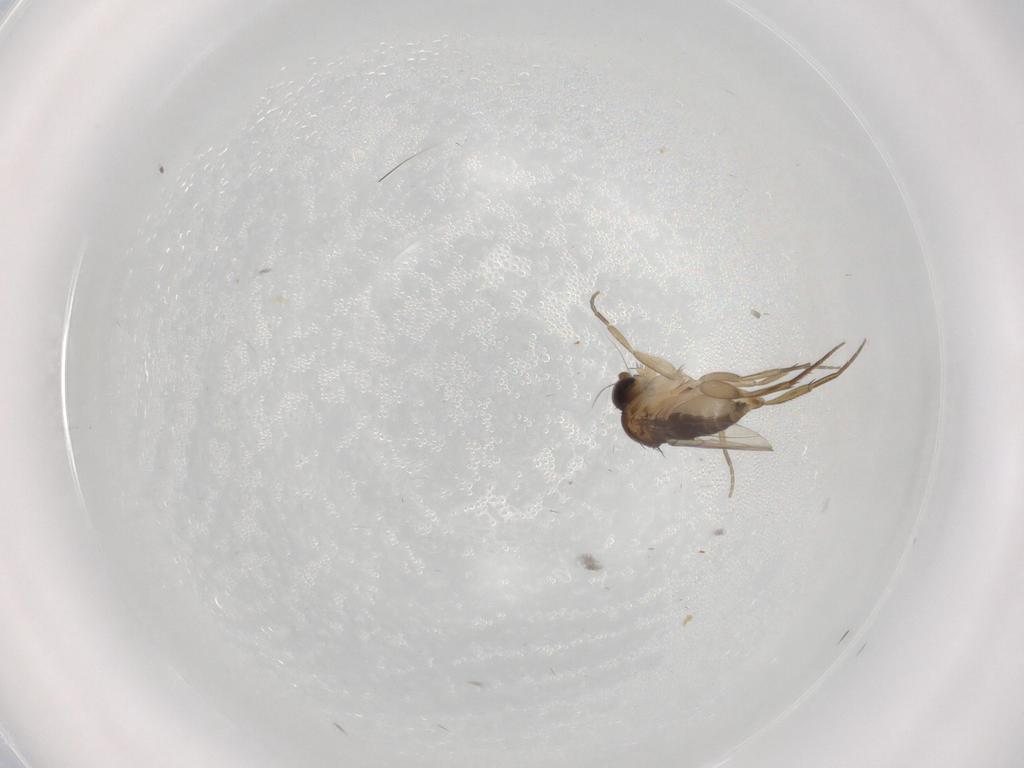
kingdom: Animalia
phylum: Arthropoda
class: Insecta
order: Diptera
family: Phoridae
